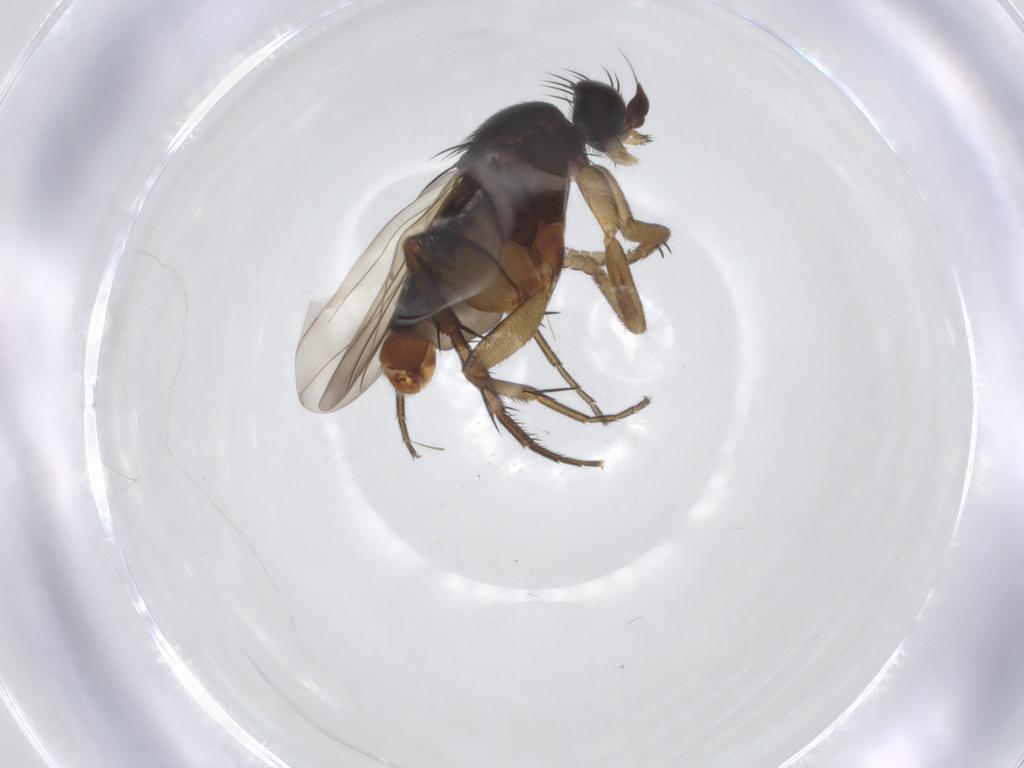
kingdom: Animalia
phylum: Arthropoda
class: Insecta
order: Diptera
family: Phoridae
